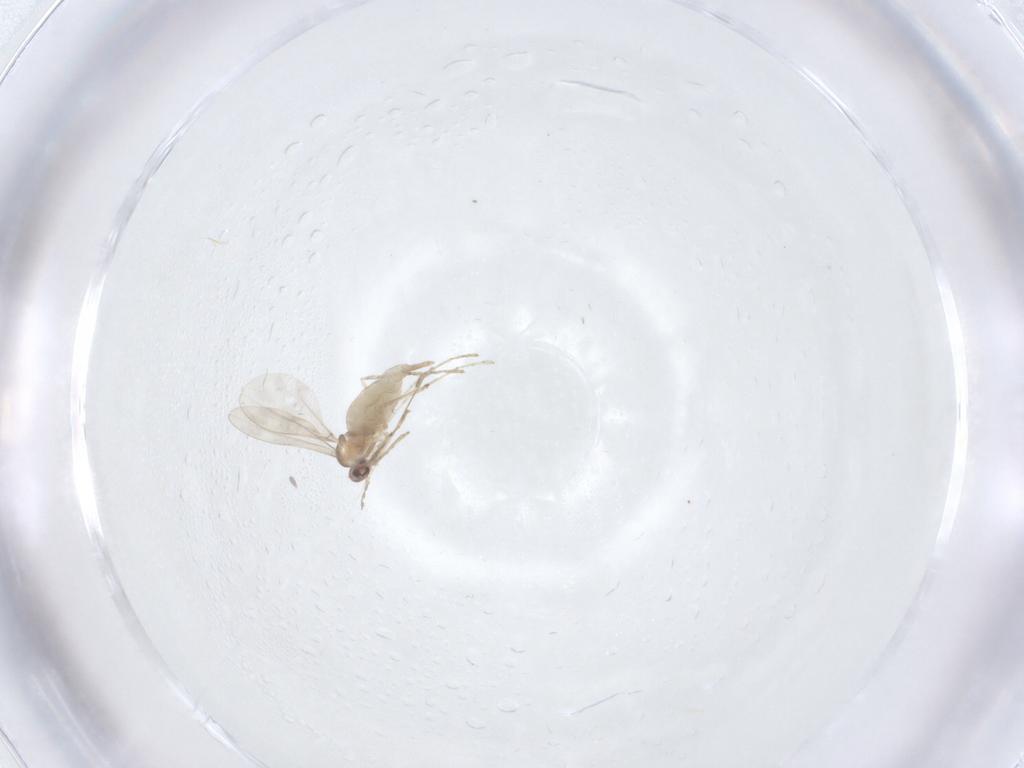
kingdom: Animalia
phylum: Arthropoda
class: Insecta
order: Diptera
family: Cecidomyiidae
